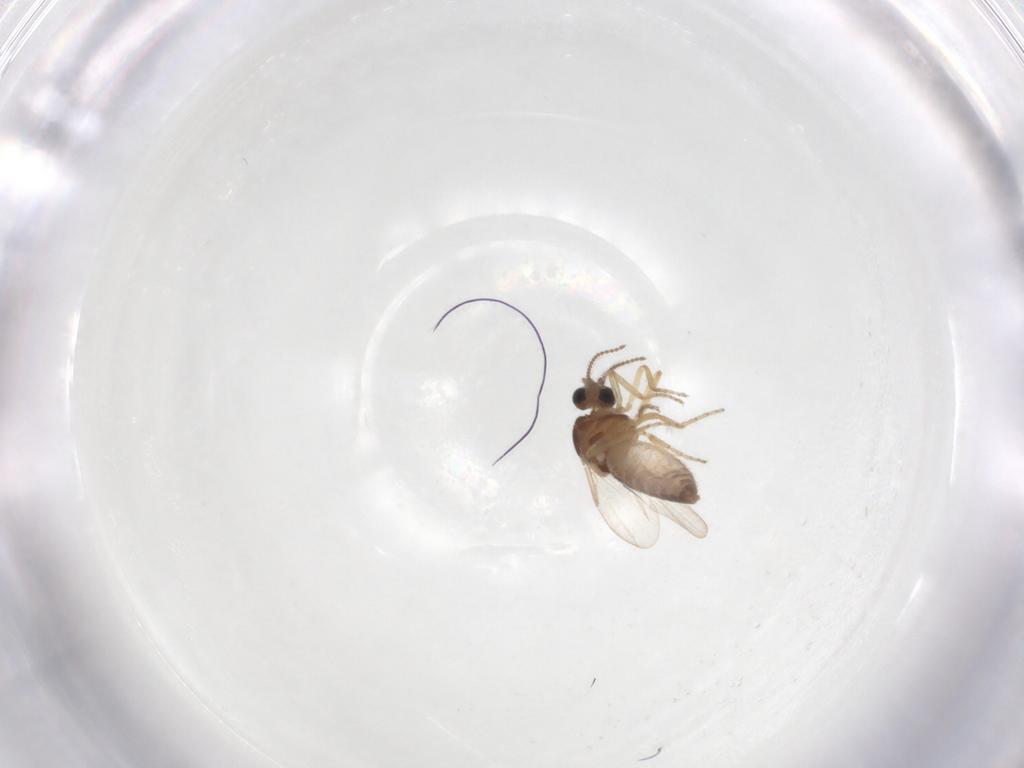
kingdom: Animalia
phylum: Arthropoda
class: Insecta
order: Diptera
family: Ceratopogonidae
